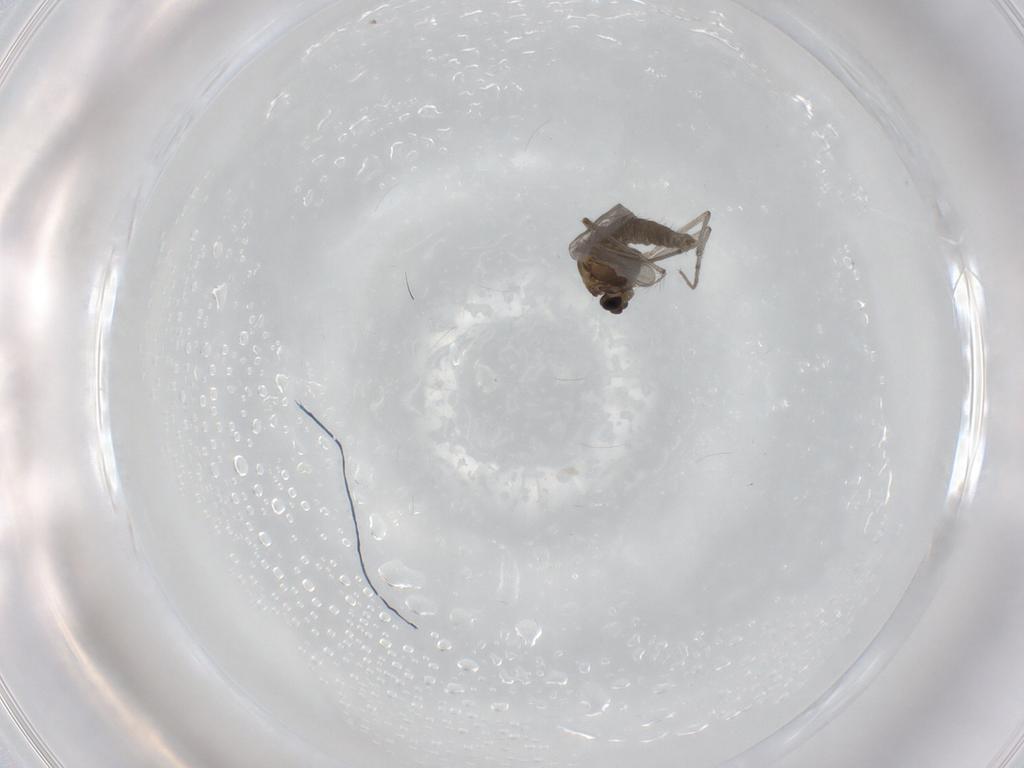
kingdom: Animalia
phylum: Arthropoda
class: Insecta
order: Diptera
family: Chironomidae
